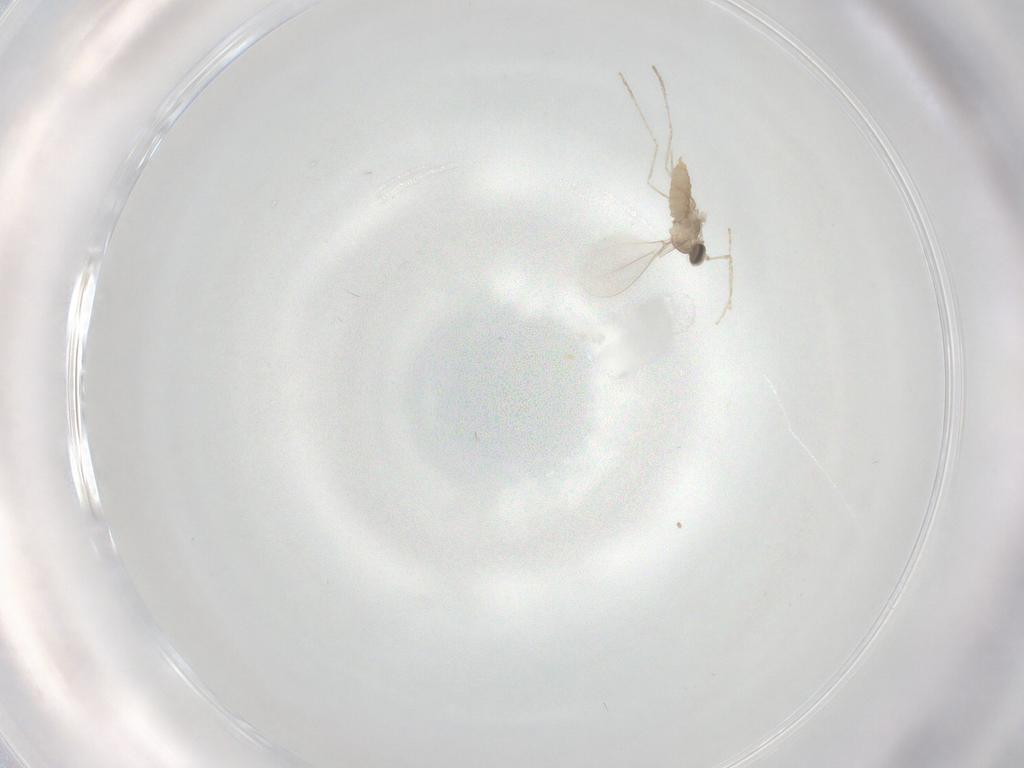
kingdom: Animalia
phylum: Arthropoda
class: Insecta
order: Diptera
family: Cecidomyiidae
